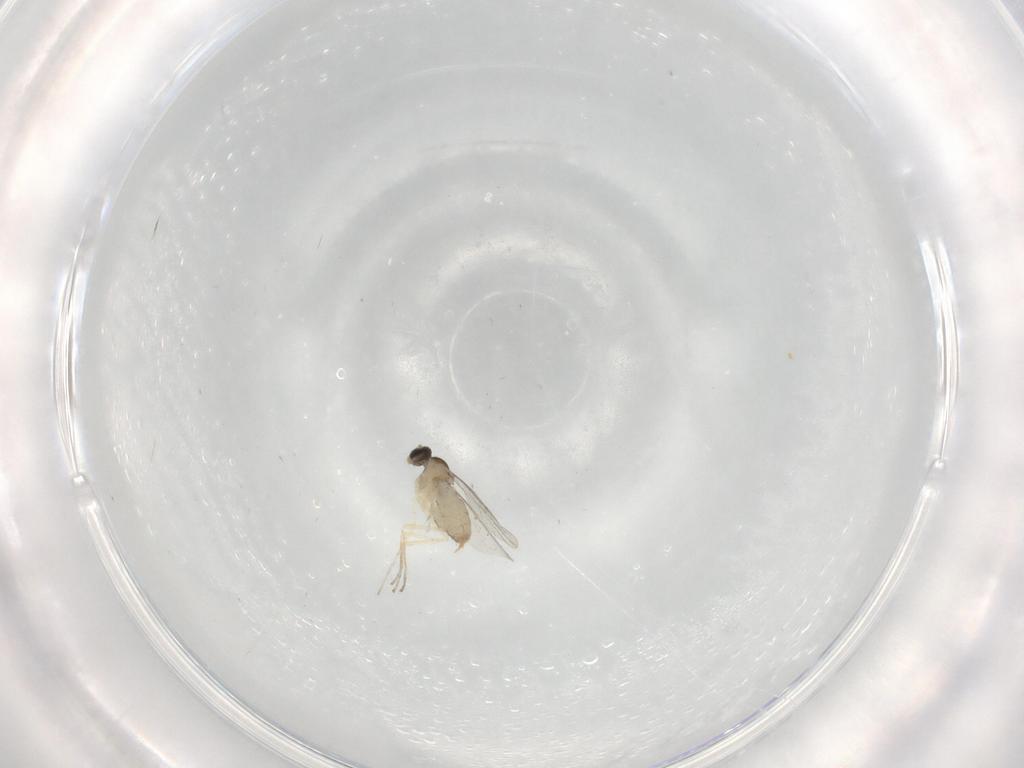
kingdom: Animalia
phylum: Arthropoda
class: Insecta
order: Diptera
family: Cecidomyiidae
